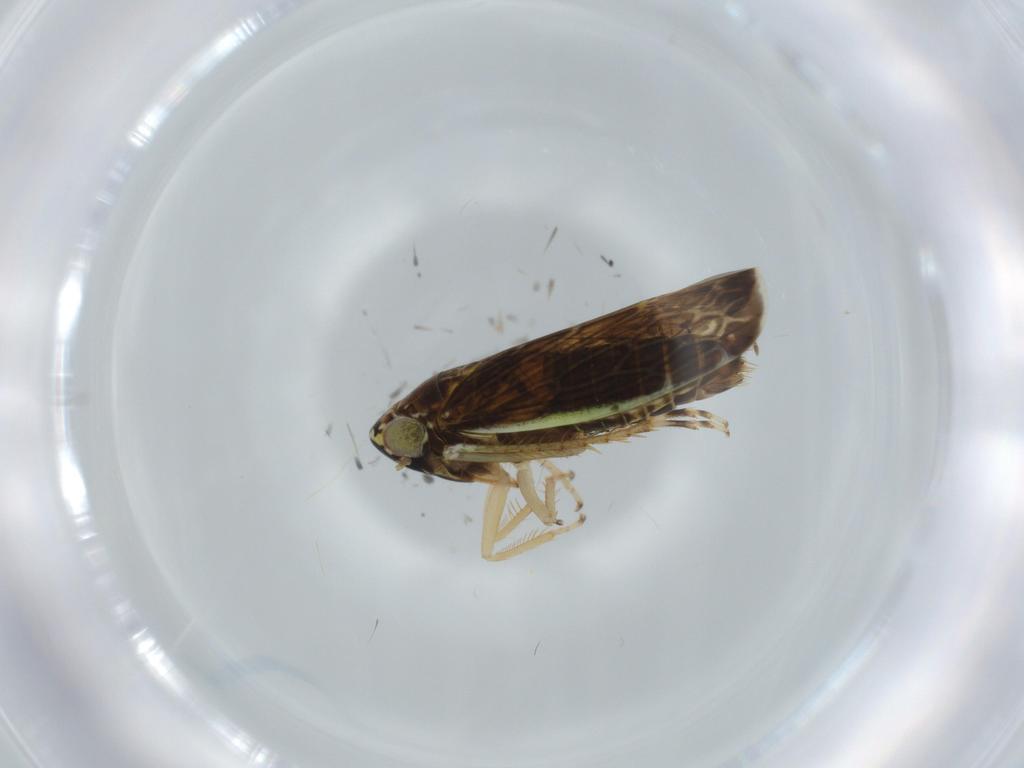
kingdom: Animalia
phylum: Arthropoda
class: Insecta
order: Hemiptera
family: Cicadellidae
